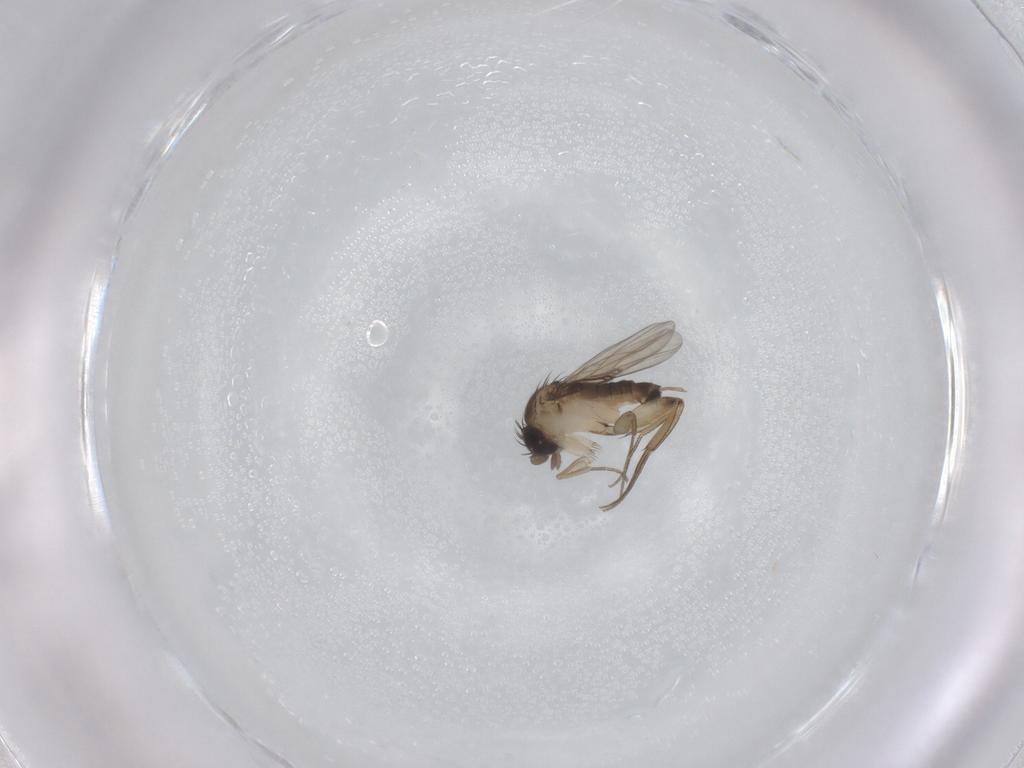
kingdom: Animalia
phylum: Arthropoda
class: Insecta
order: Diptera
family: Phoridae
